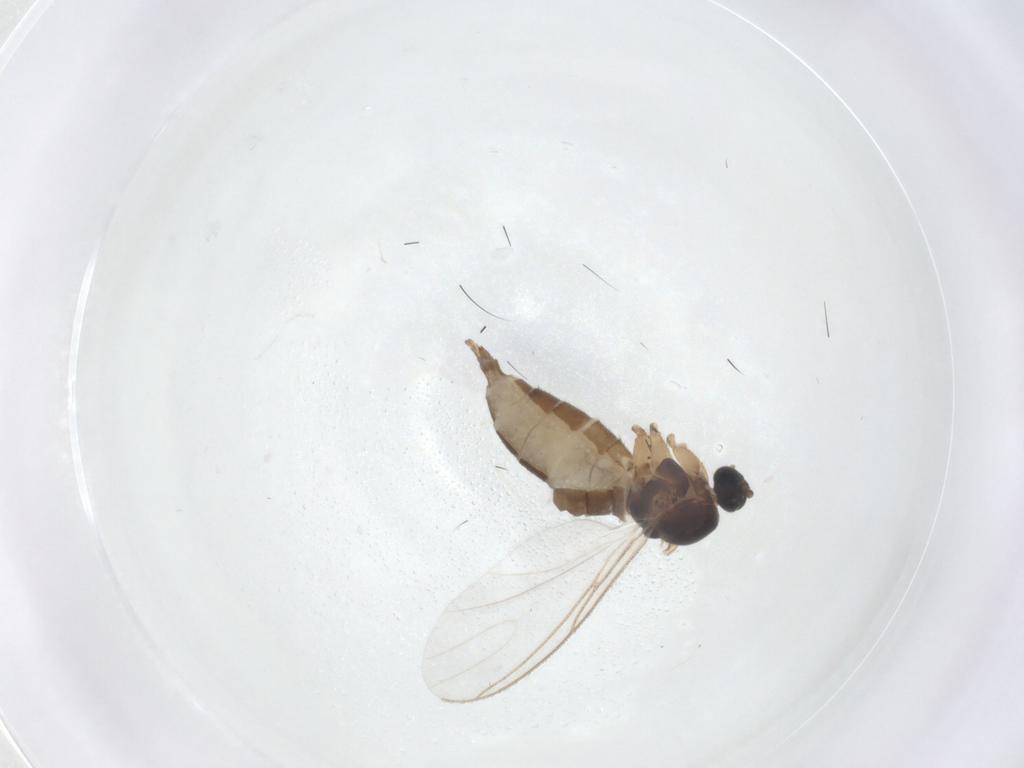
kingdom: Animalia
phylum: Arthropoda
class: Insecta
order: Diptera
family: Sciaridae
